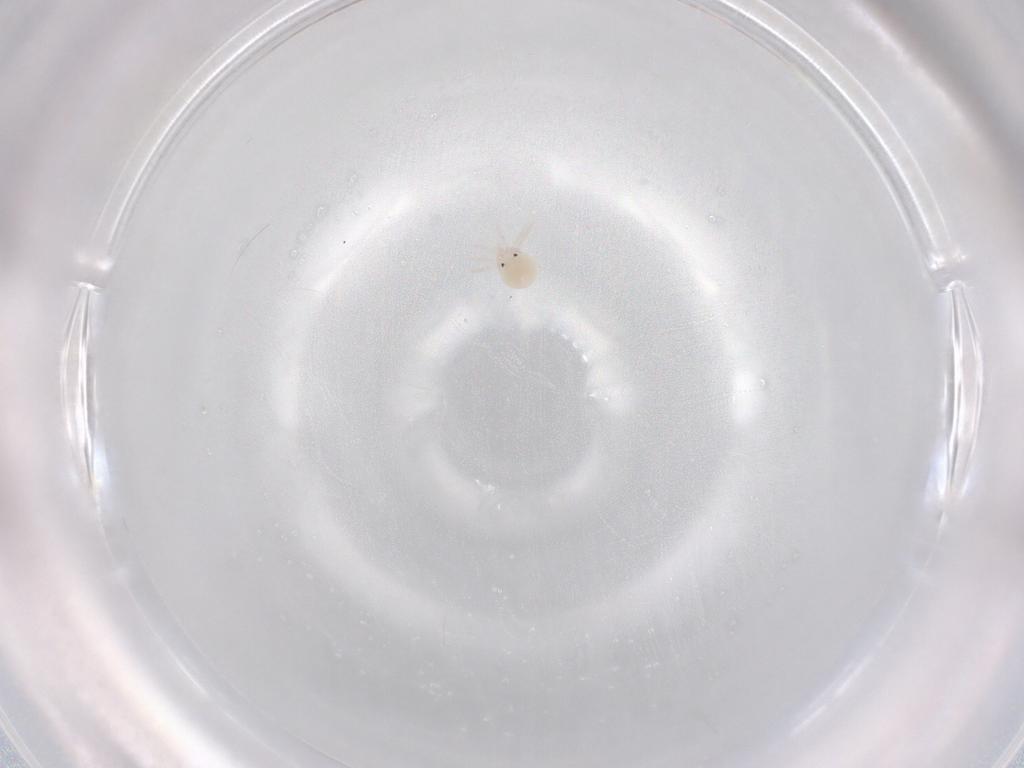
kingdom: Animalia
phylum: Arthropoda
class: Arachnida
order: Trombidiformes
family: Lebertiidae
